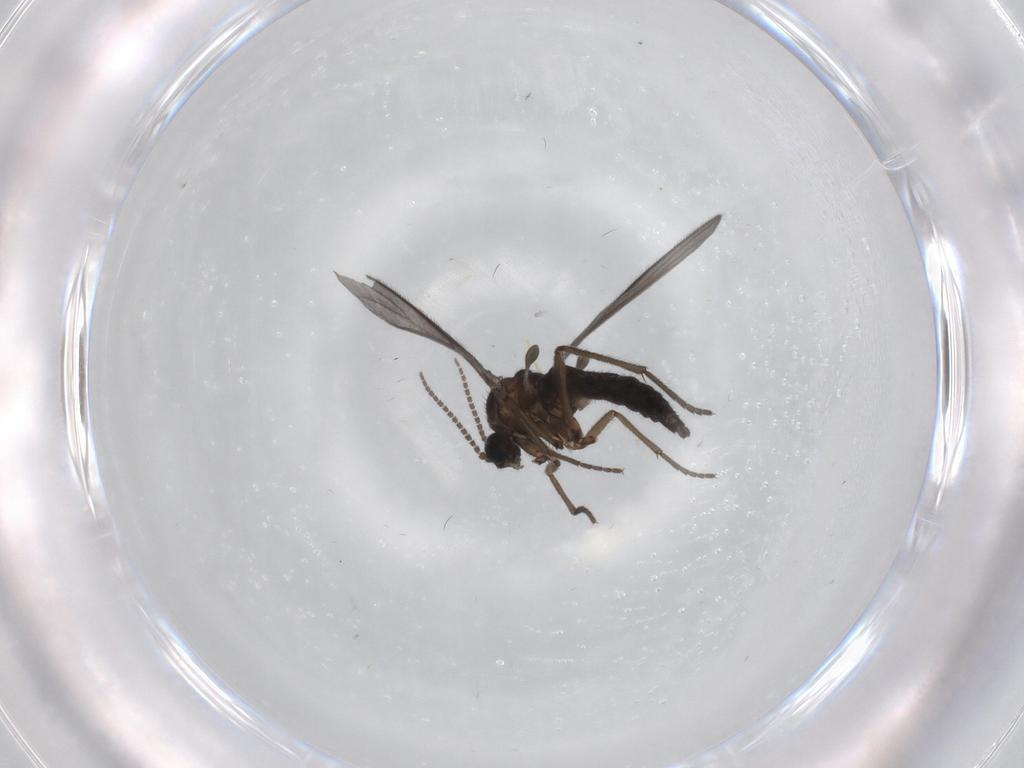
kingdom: Animalia
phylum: Arthropoda
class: Insecta
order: Diptera
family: Sciaridae
